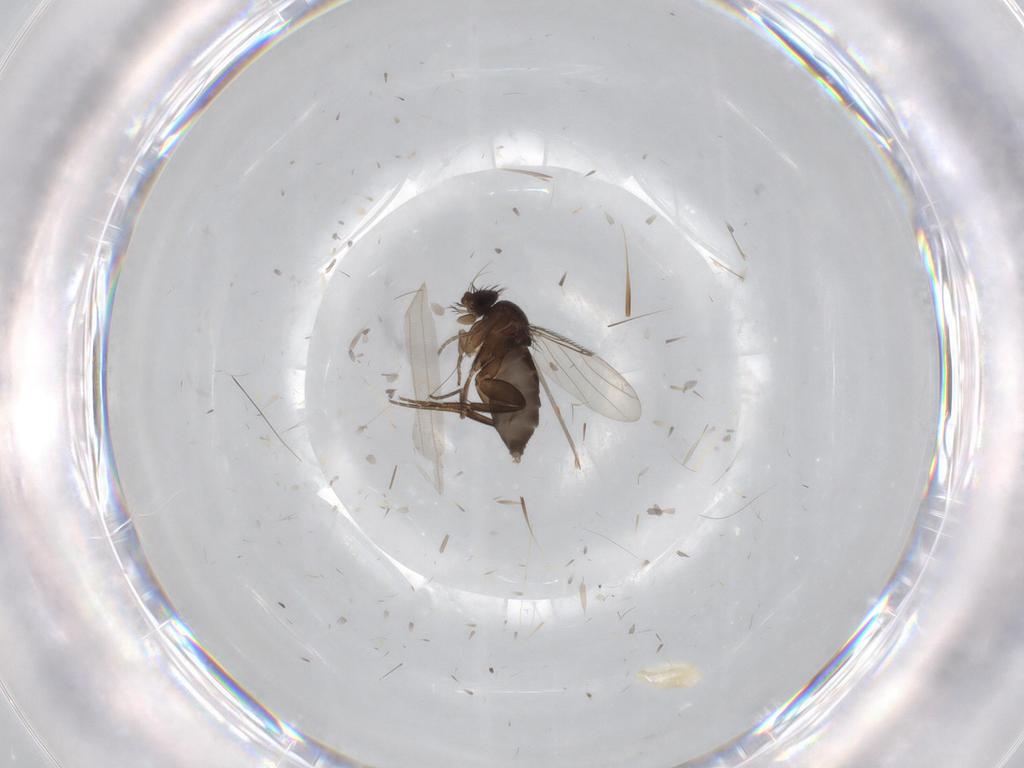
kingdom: Animalia
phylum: Arthropoda
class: Insecta
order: Diptera
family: Phoridae
